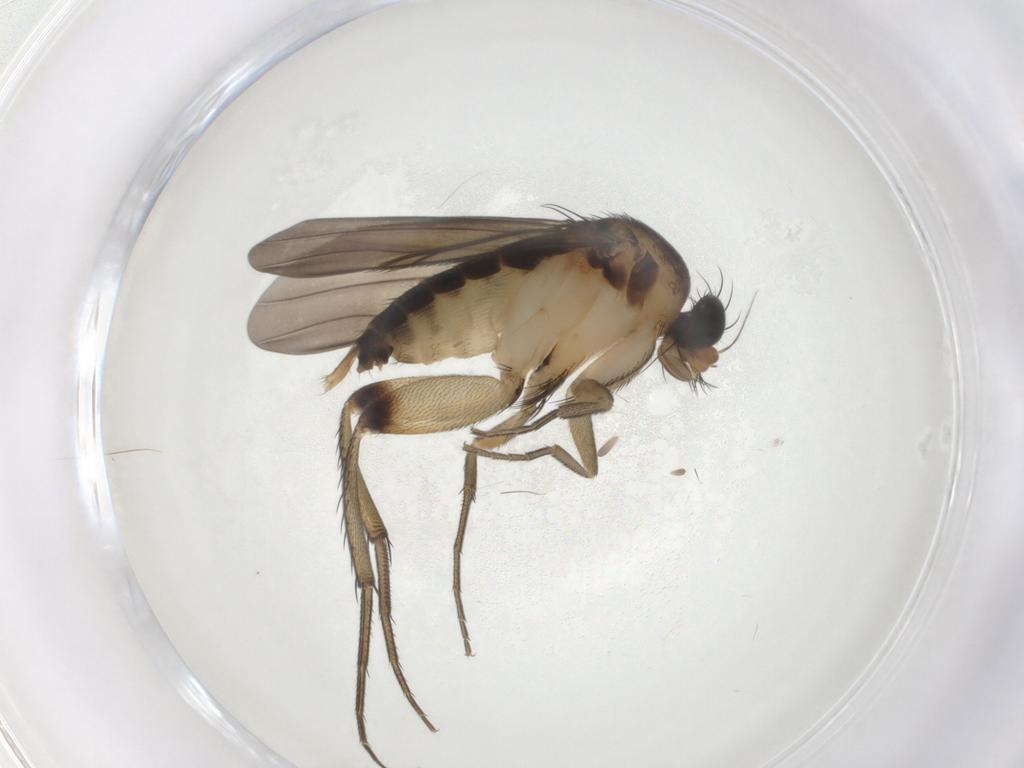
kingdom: Animalia
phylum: Arthropoda
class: Insecta
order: Diptera
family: Phoridae
